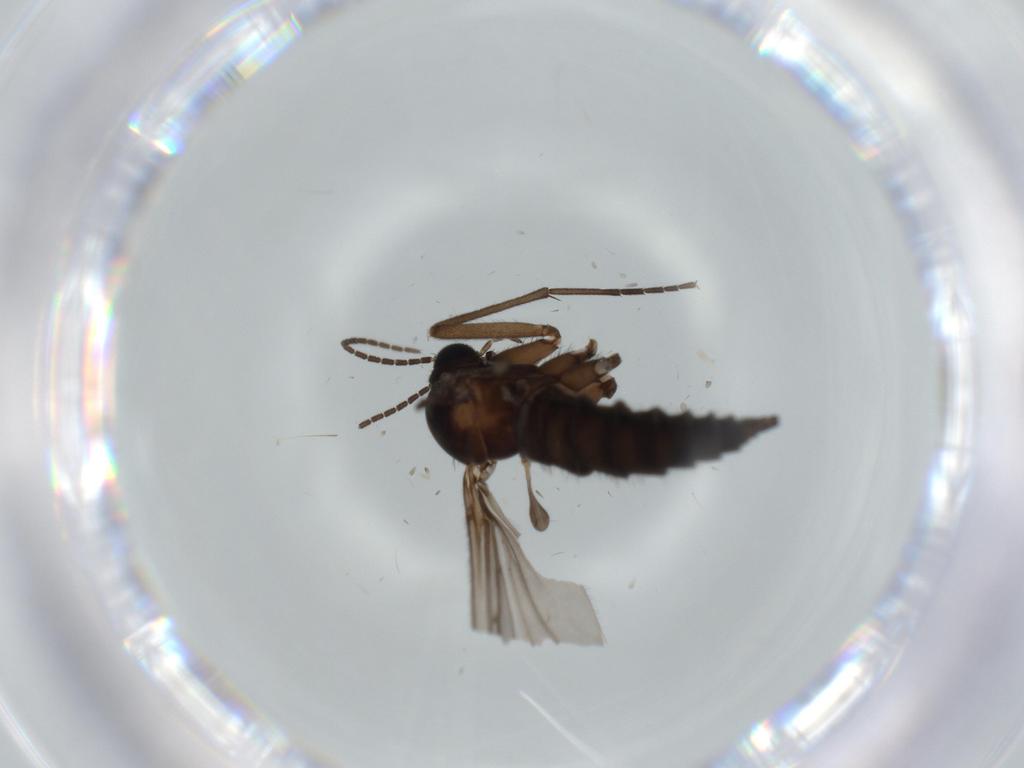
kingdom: Animalia
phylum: Arthropoda
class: Insecta
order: Diptera
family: Sciaridae
